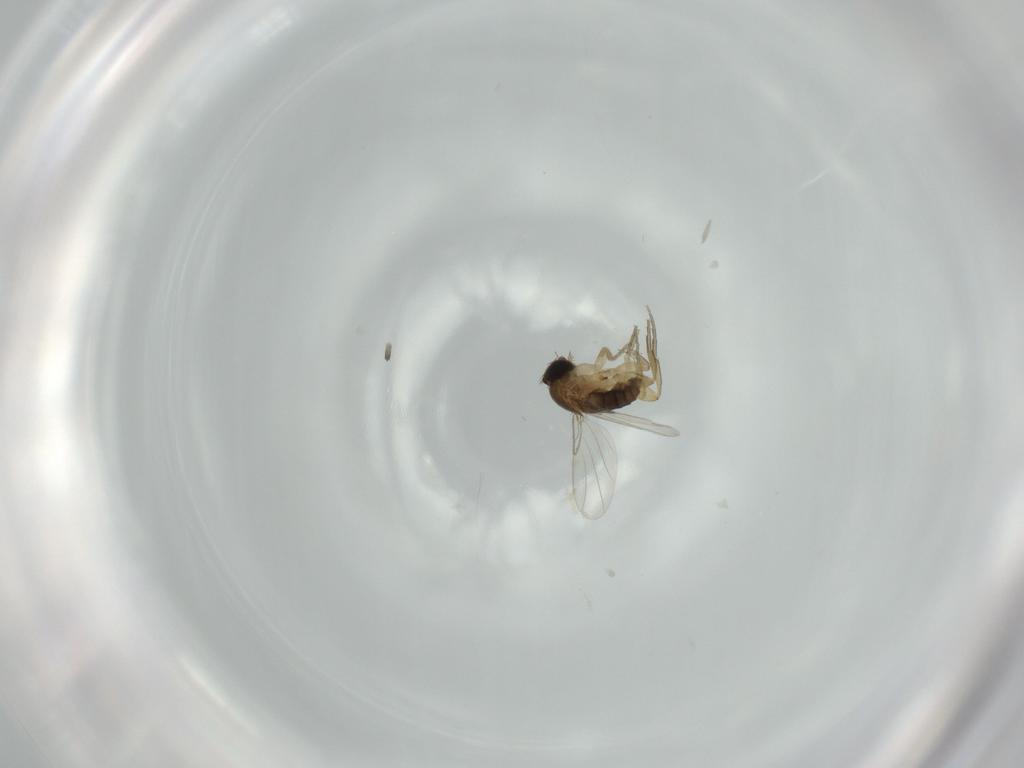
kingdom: Animalia
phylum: Arthropoda
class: Insecta
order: Diptera
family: Phoridae
